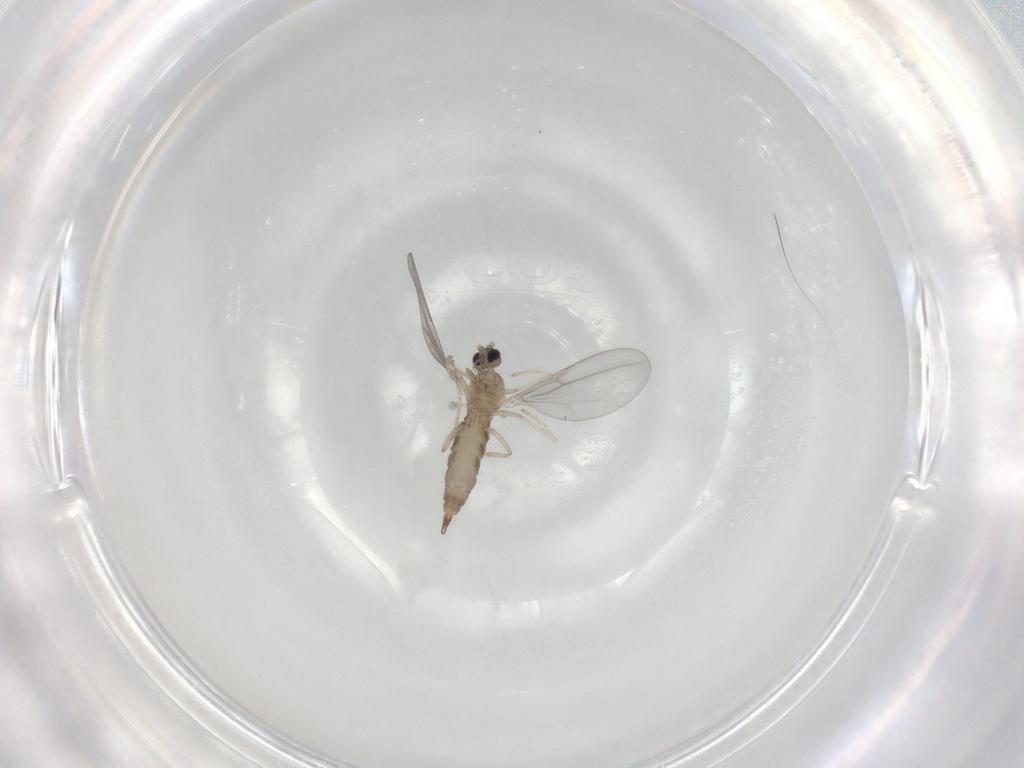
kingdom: Animalia
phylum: Arthropoda
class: Insecta
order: Diptera
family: Cecidomyiidae
